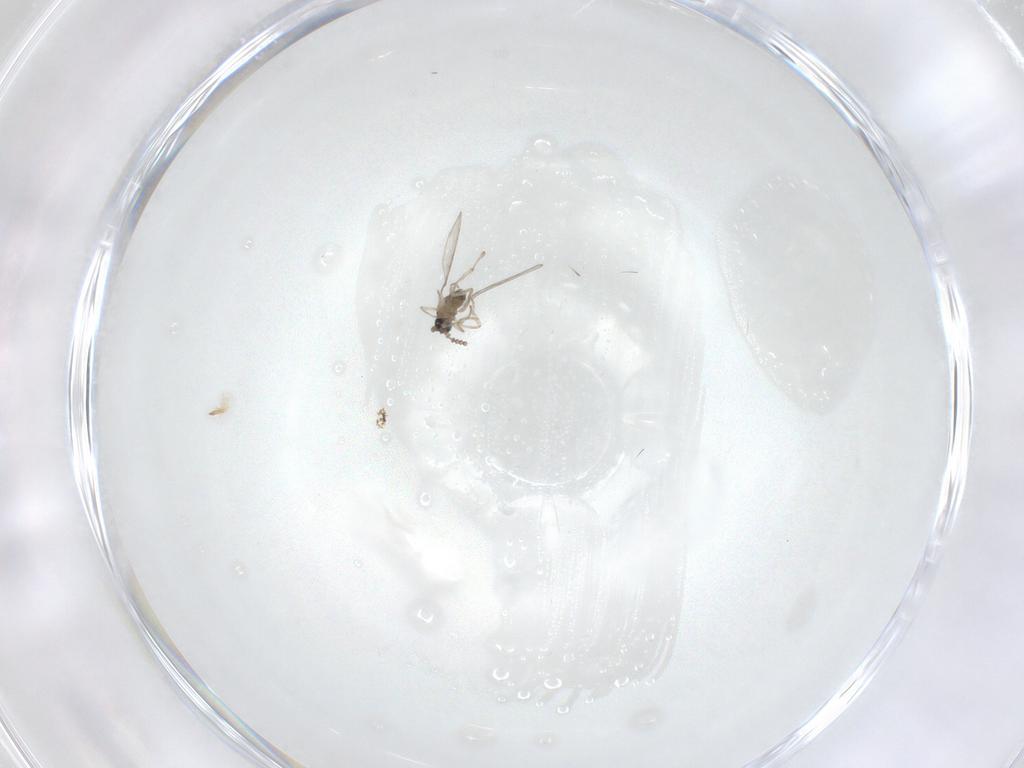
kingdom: Animalia
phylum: Arthropoda
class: Insecta
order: Diptera
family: Cecidomyiidae
